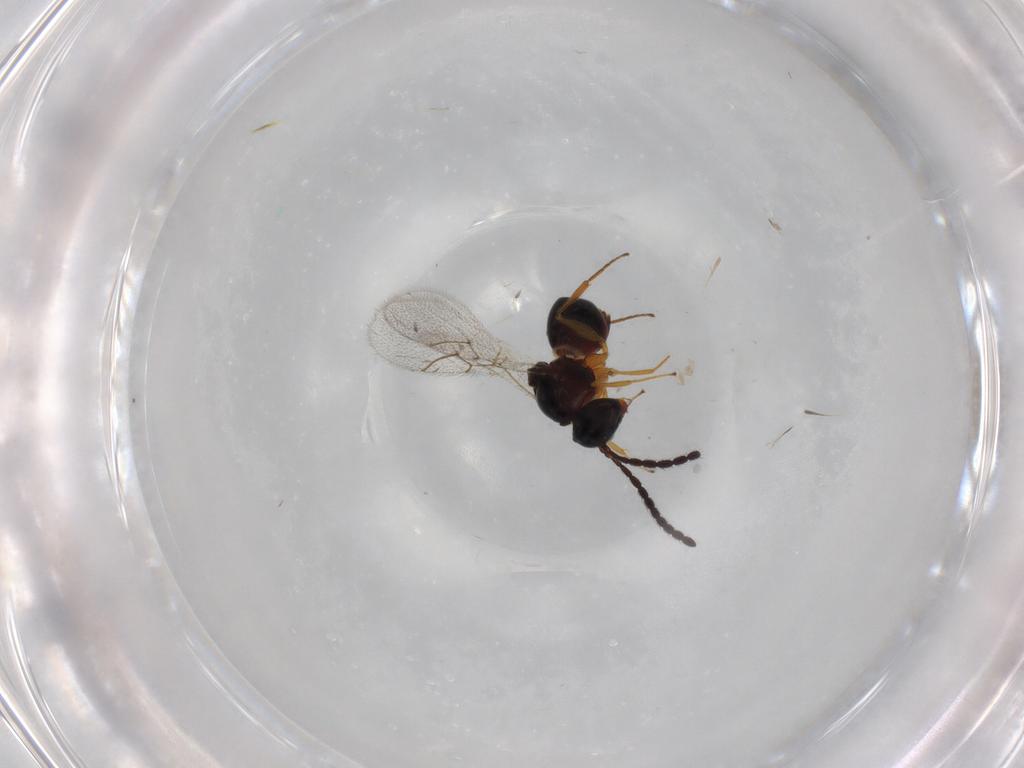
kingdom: Animalia
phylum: Arthropoda
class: Insecta
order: Hymenoptera
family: Figitidae
